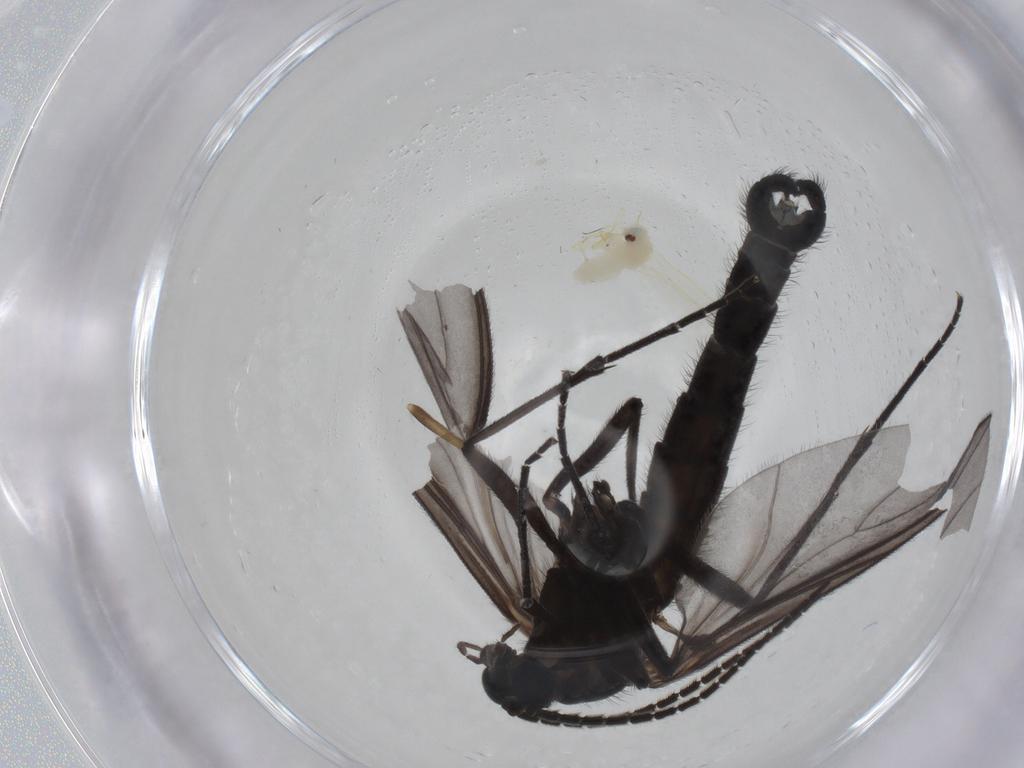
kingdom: Animalia
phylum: Arthropoda
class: Insecta
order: Diptera
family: Chironomidae
